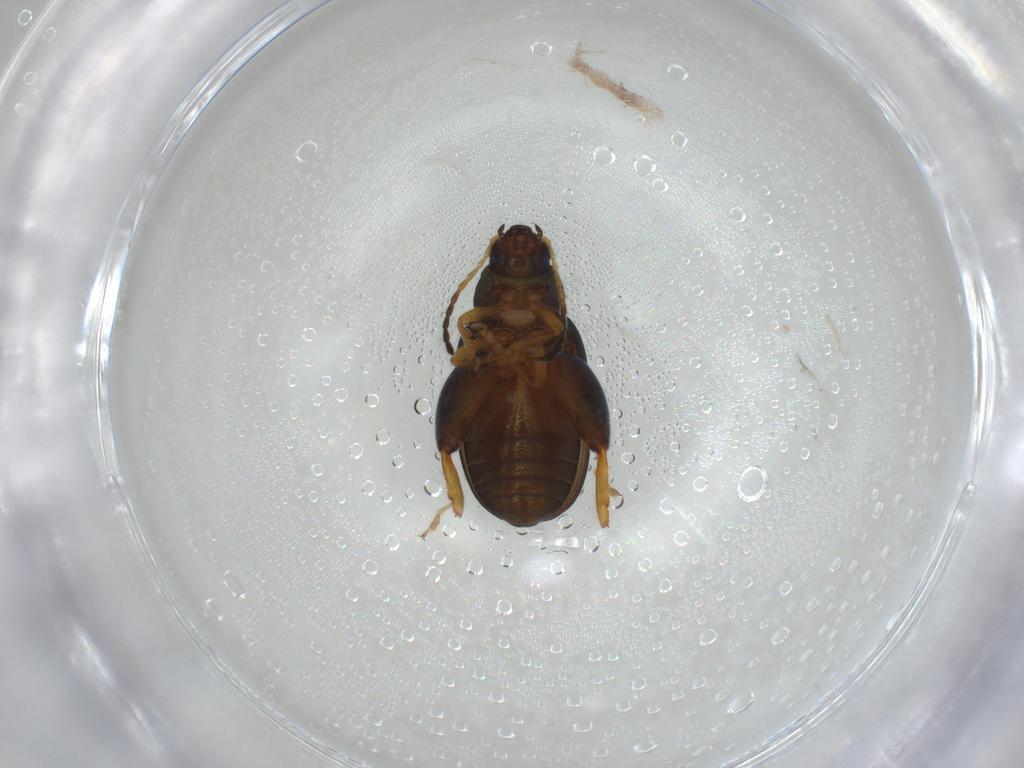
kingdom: Animalia
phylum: Arthropoda
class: Insecta
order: Coleoptera
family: Chrysomelidae
